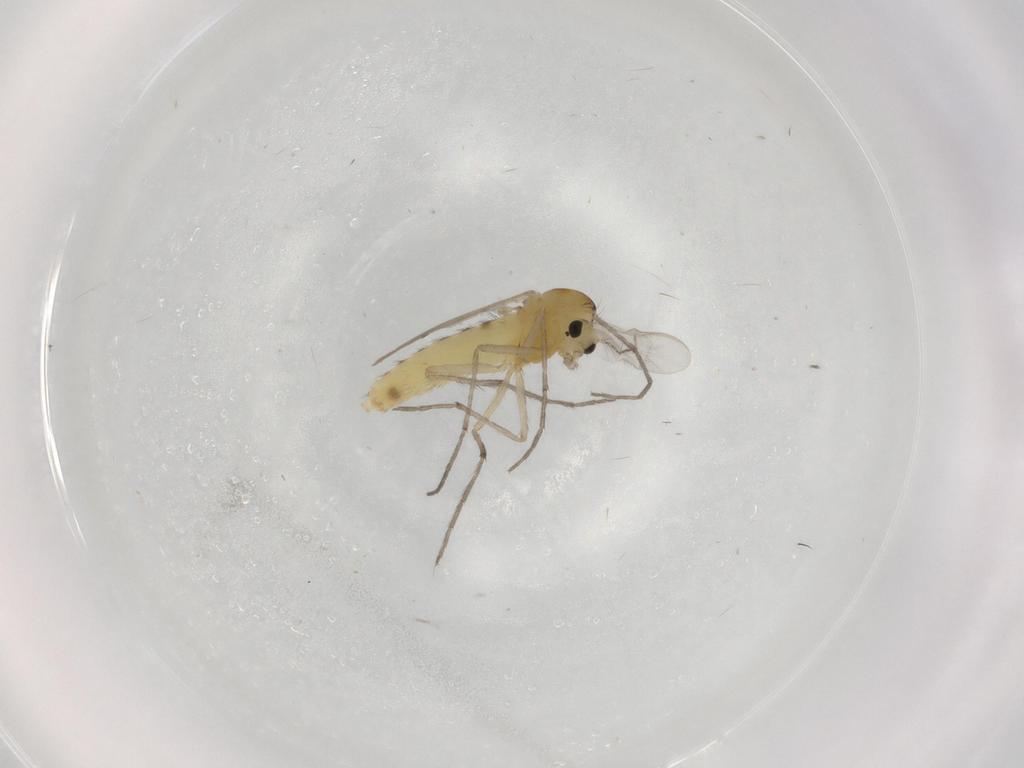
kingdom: Animalia
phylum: Arthropoda
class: Insecta
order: Diptera
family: Chironomidae
